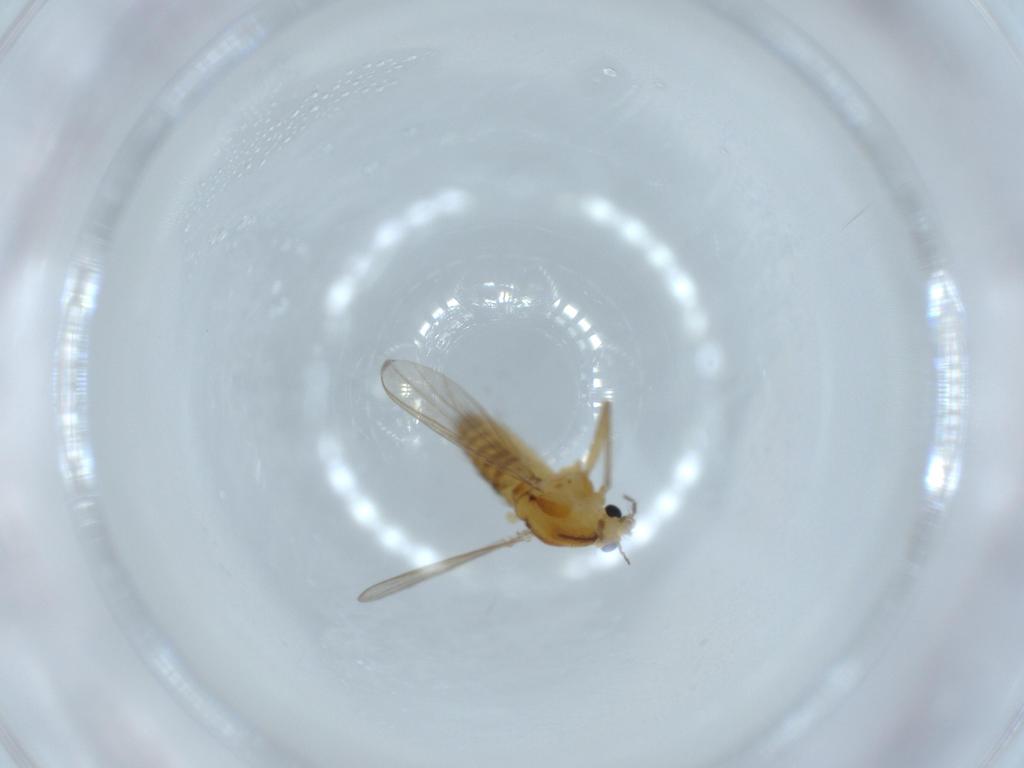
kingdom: Animalia
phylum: Arthropoda
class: Insecta
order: Diptera
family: Chironomidae
